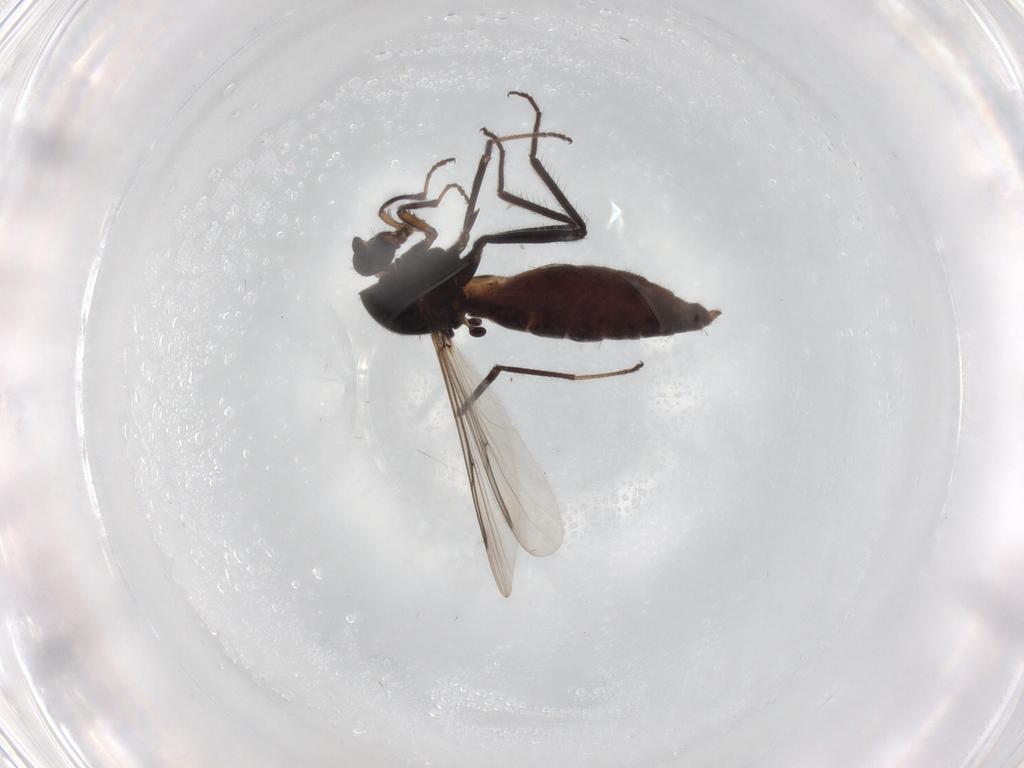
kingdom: Animalia
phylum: Arthropoda
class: Insecta
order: Diptera
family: Ceratopogonidae
